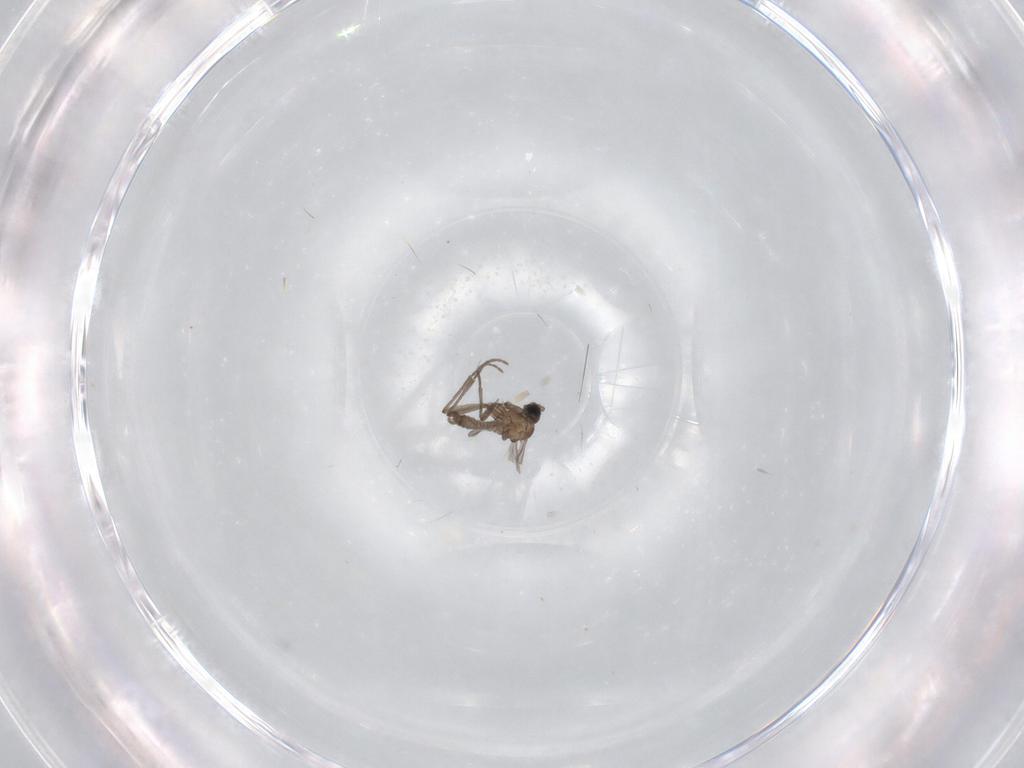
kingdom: Animalia
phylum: Arthropoda
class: Insecta
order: Diptera
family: Sciaridae
